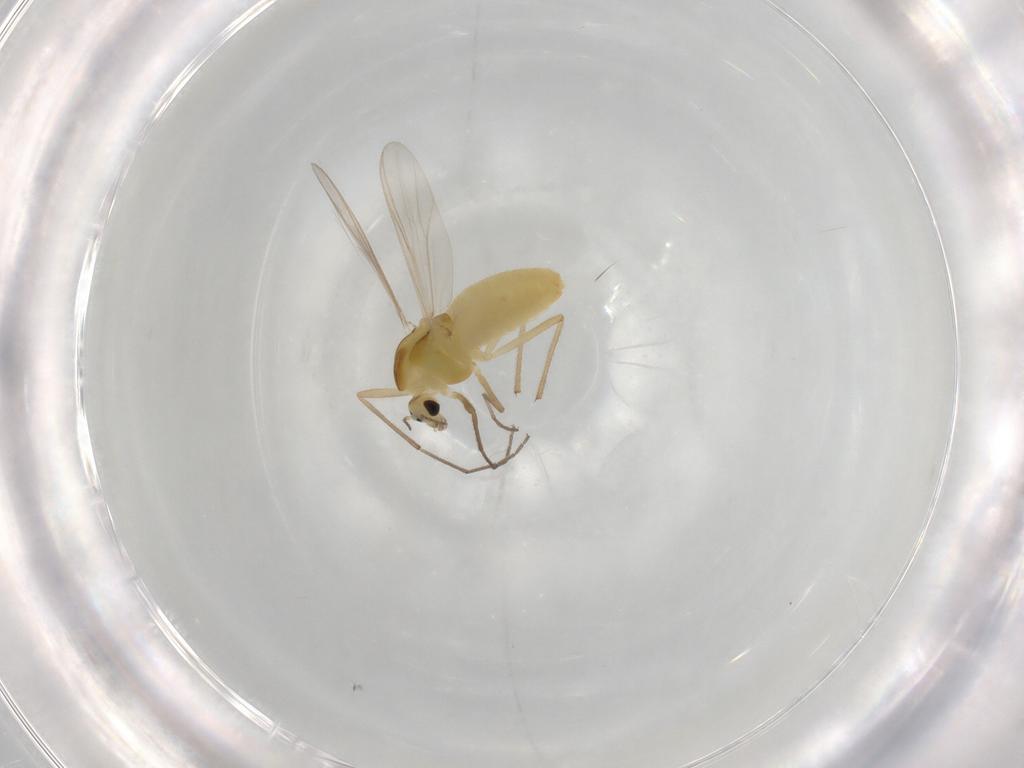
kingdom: Animalia
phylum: Arthropoda
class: Insecta
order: Diptera
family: Chironomidae
